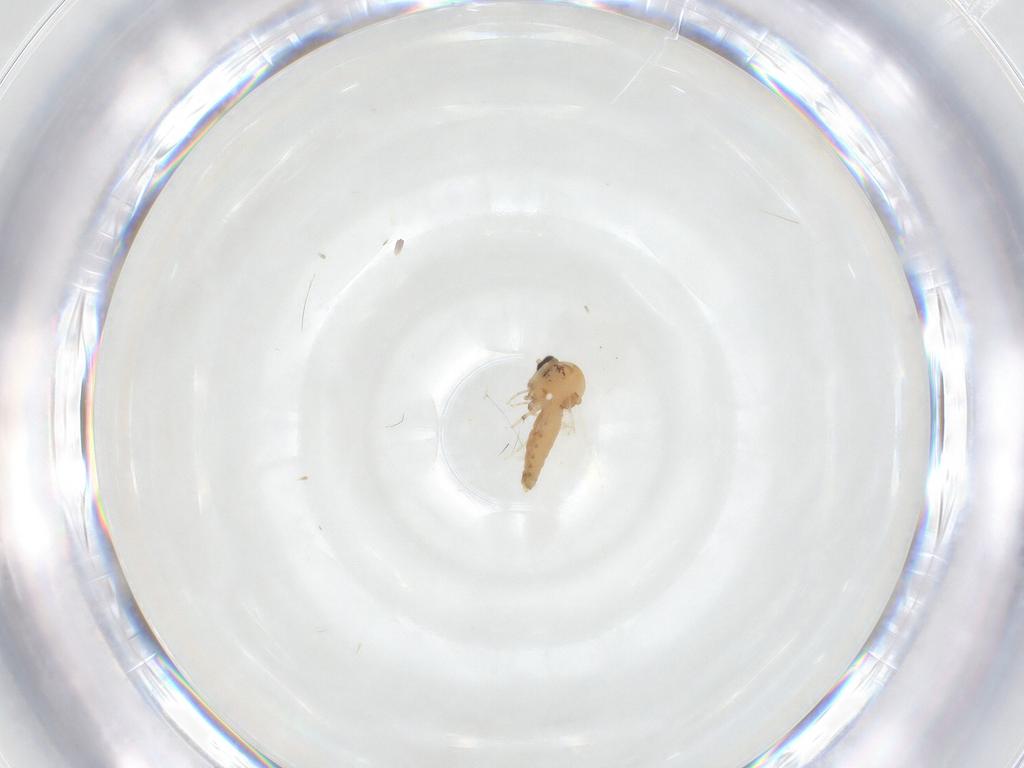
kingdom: Animalia
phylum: Arthropoda
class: Insecta
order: Diptera
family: Ceratopogonidae
